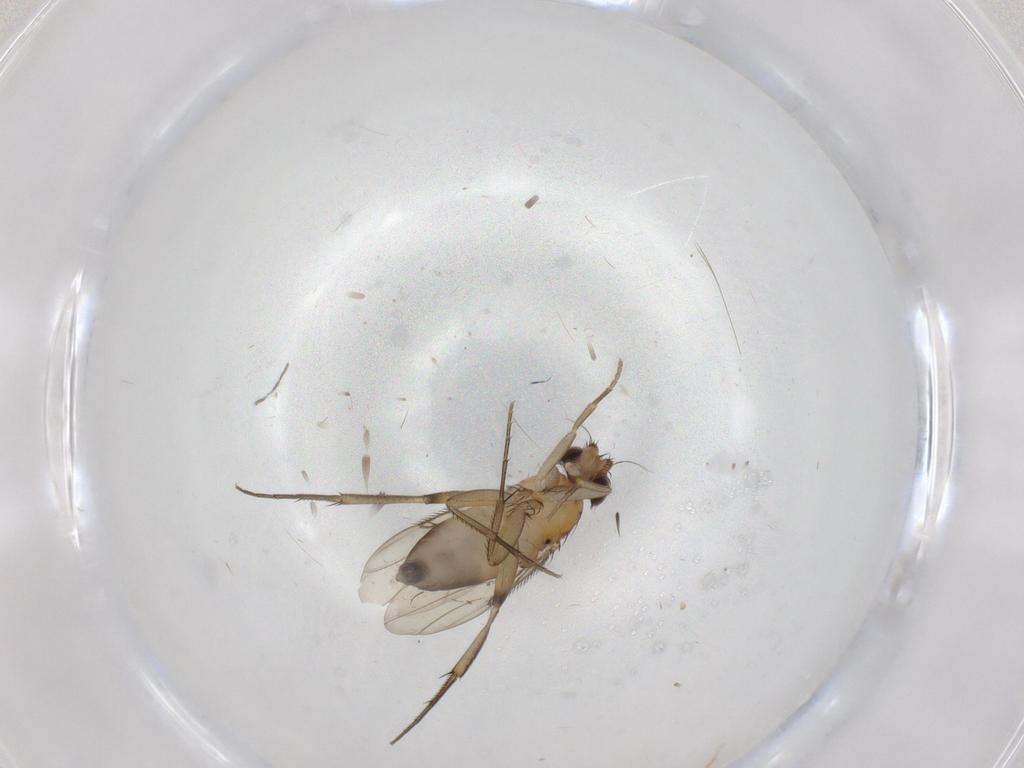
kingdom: Animalia
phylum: Arthropoda
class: Insecta
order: Diptera
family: Phoridae
